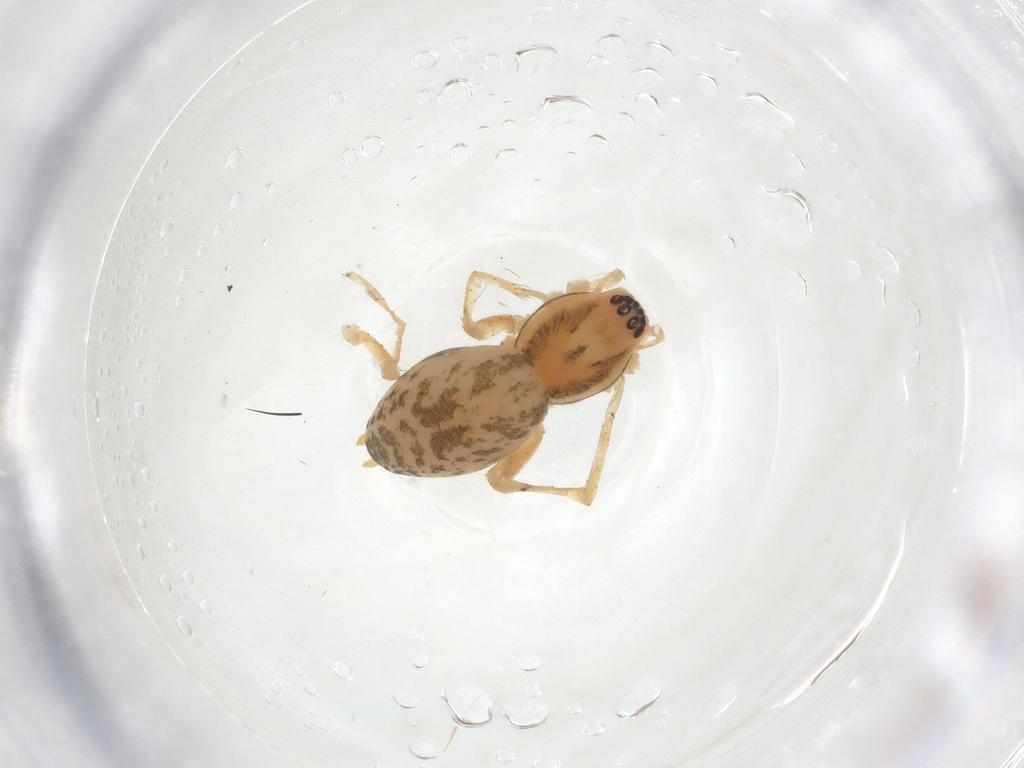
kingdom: Animalia
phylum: Arthropoda
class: Arachnida
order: Araneae
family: Anyphaenidae
